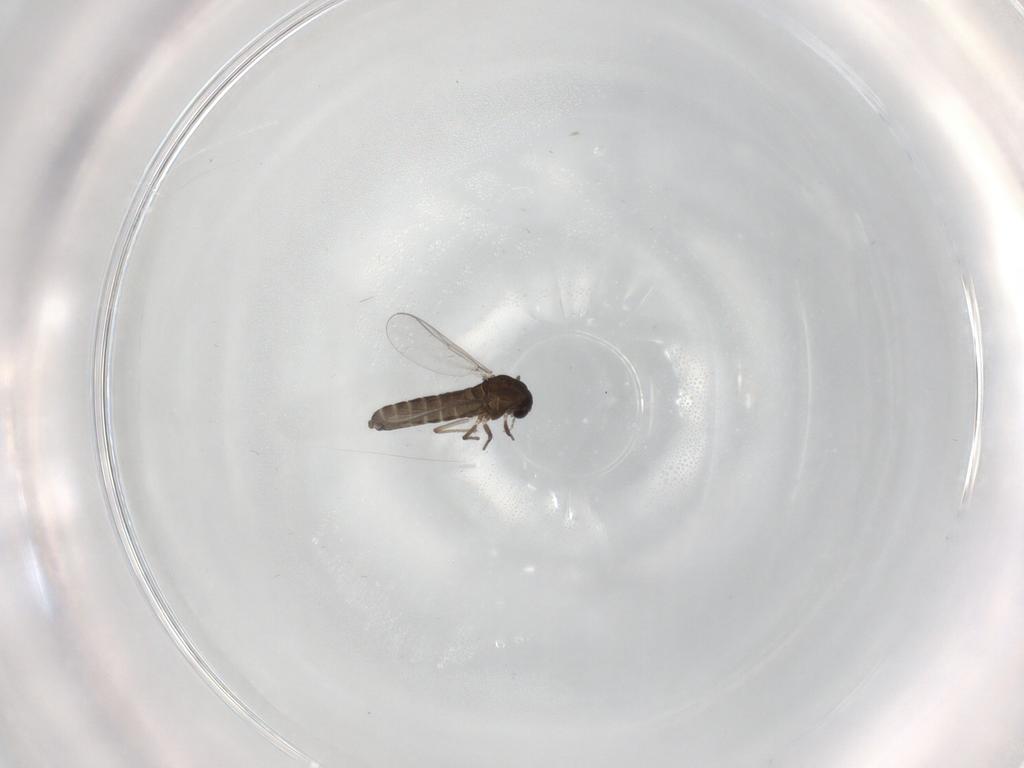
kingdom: Animalia
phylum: Arthropoda
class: Insecta
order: Diptera
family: Chironomidae
